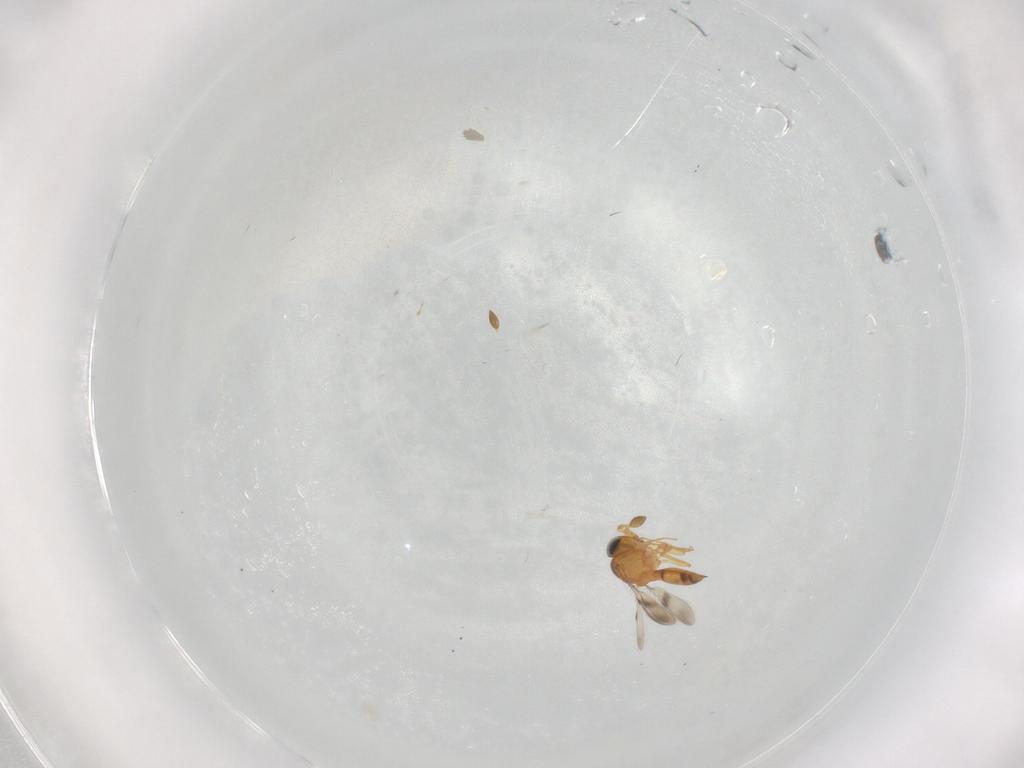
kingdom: Animalia
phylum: Arthropoda
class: Insecta
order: Hymenoptera
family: Scelionidae
